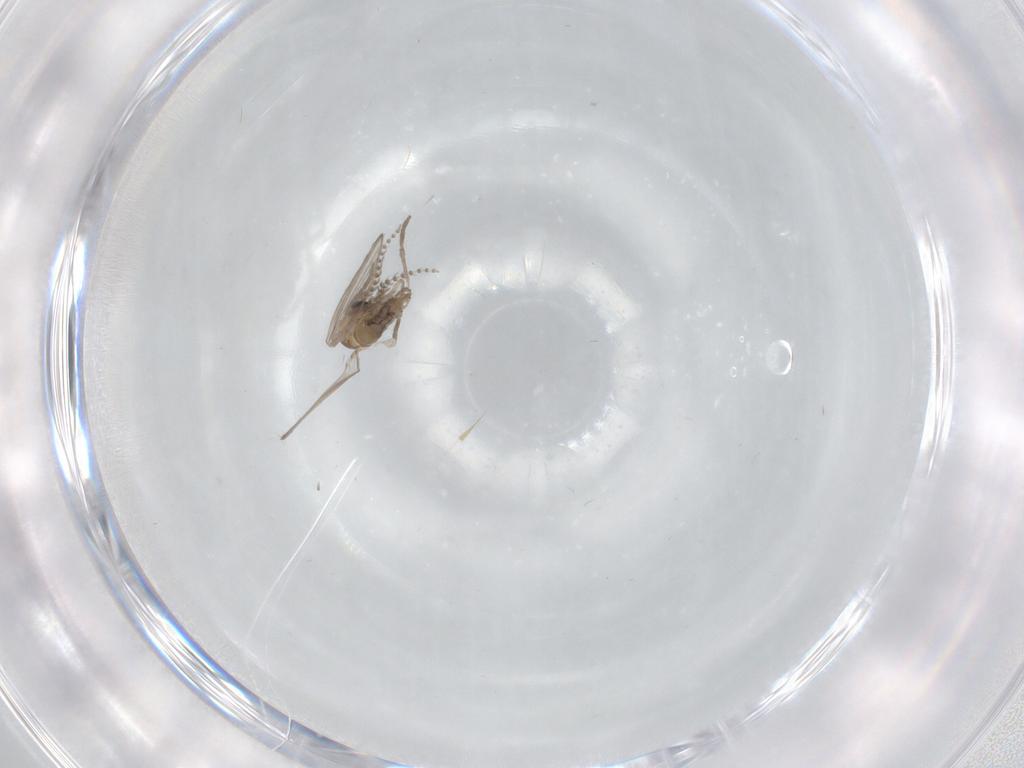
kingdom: Animalia
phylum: Arthropoda
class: Insecta
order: Diptera
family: Psychodidae
